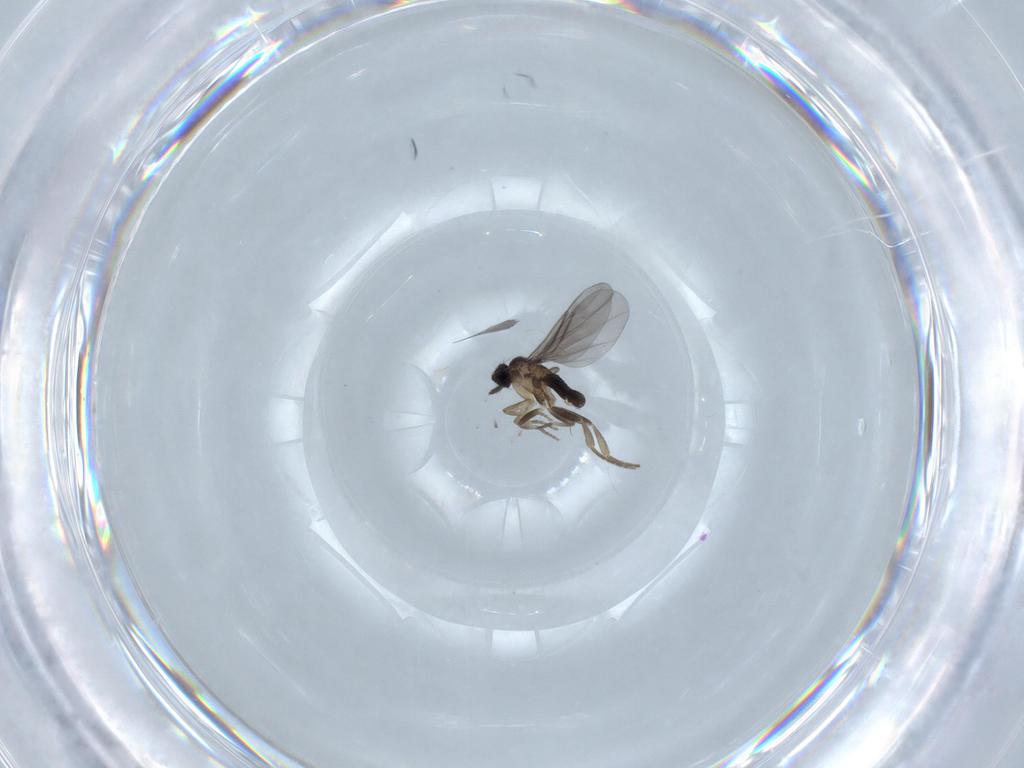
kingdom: Animalia
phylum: Arthropoda
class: Insecta
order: Diptera
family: Chironomidae
